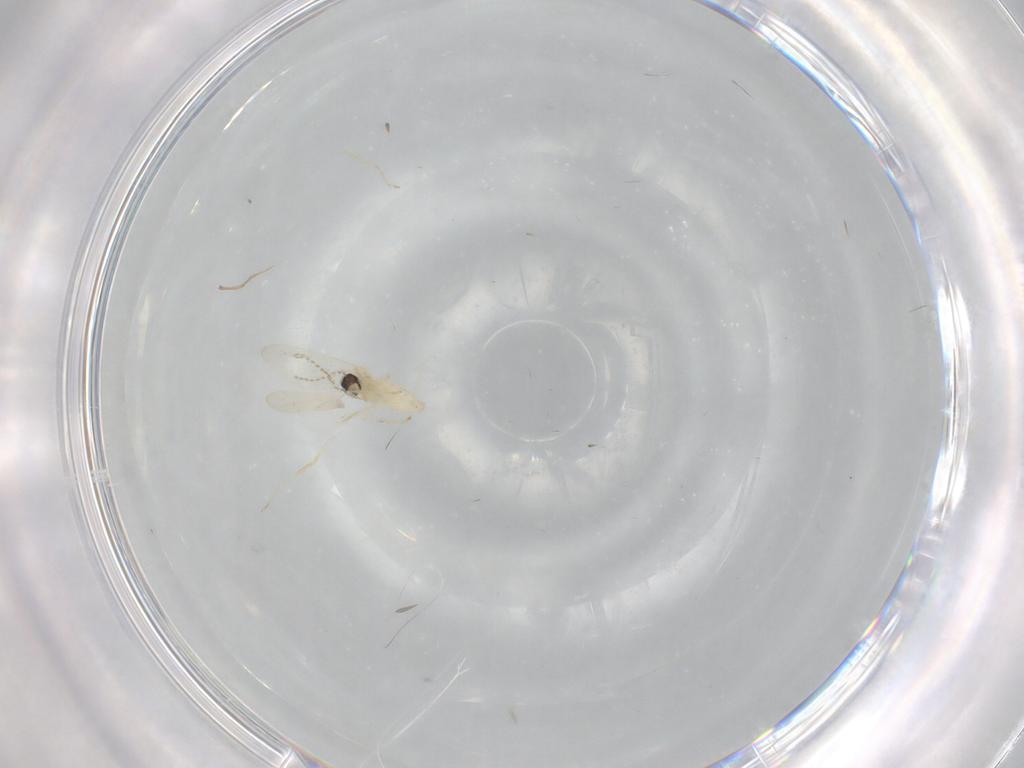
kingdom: Animalia
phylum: Arthropoda
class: Insecta
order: Diptera
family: Cecidomyiidae
